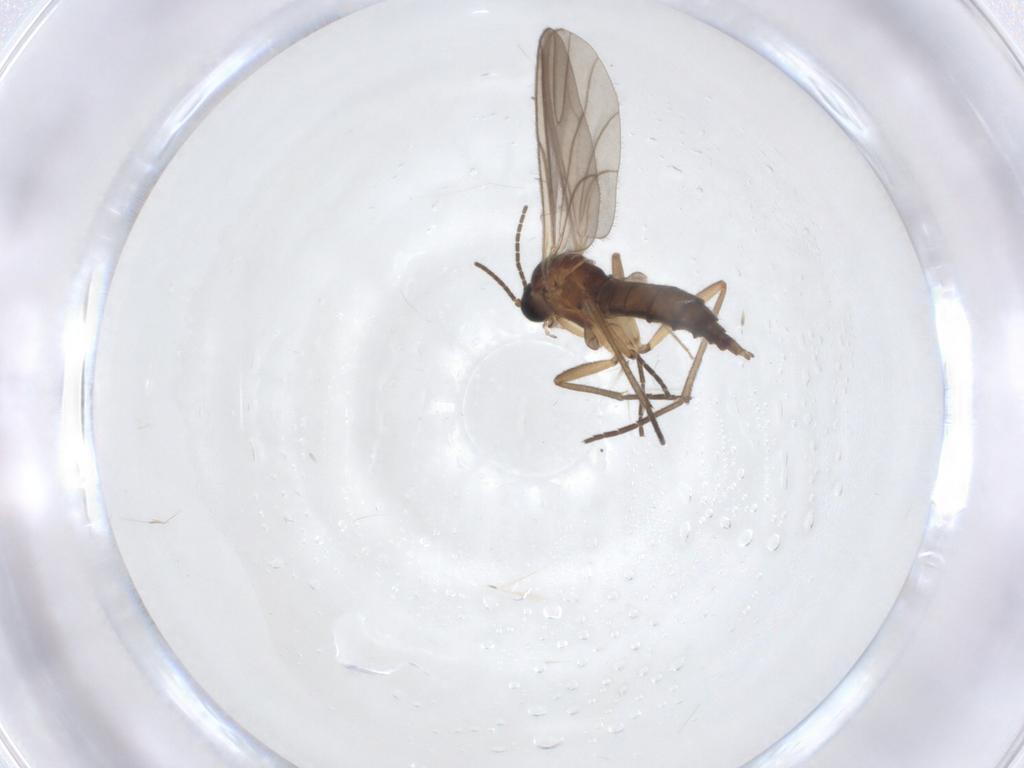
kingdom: Animalia
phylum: Arthropoda
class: Insecta
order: Diptera
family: Sciaridae
